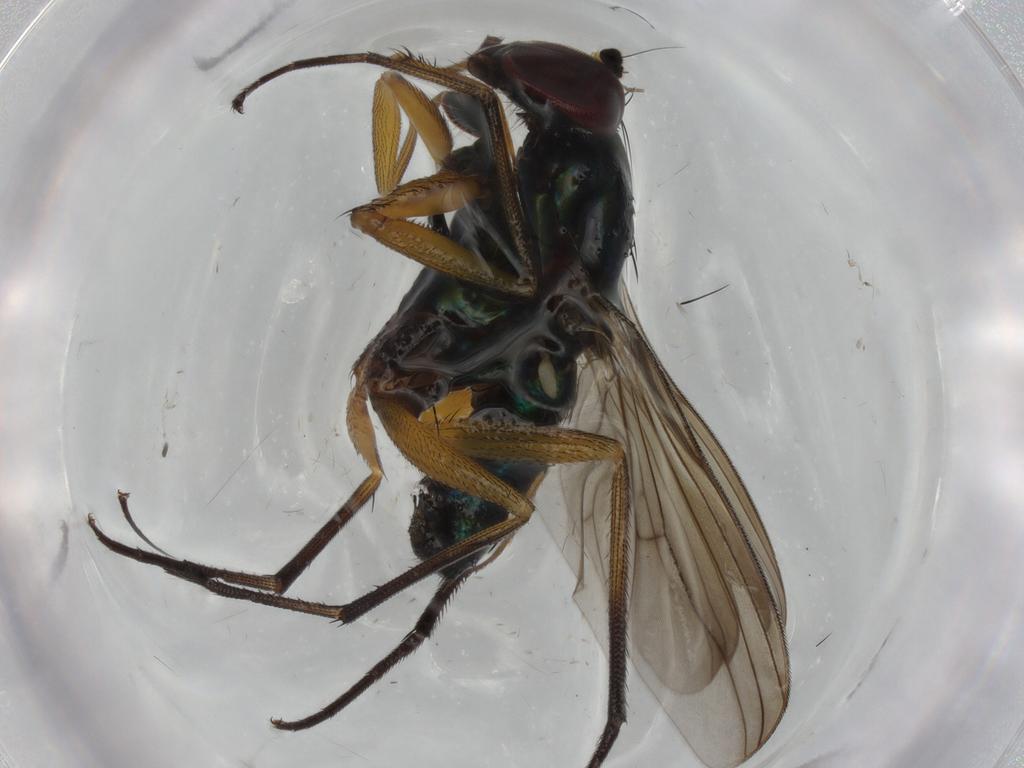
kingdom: Animalia
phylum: Arthropoda
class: Insecta
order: Diptera
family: Dolichopodidae
